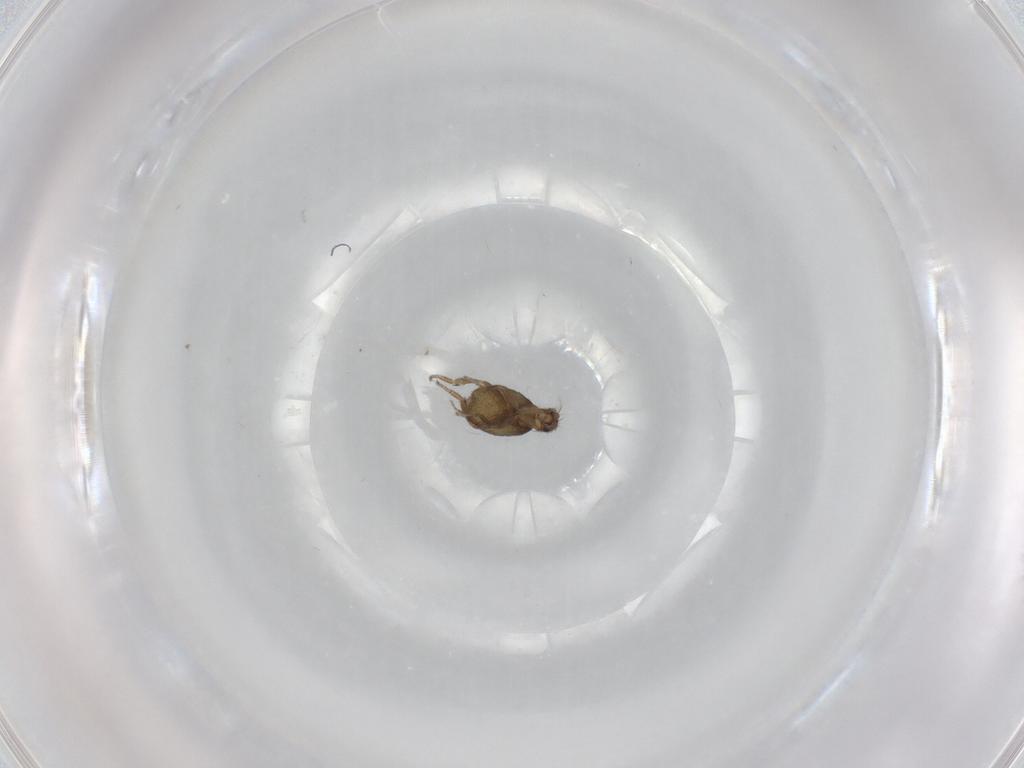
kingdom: Animalia
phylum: Arthropoda
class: Insecta
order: Diptera
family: Phoridae
